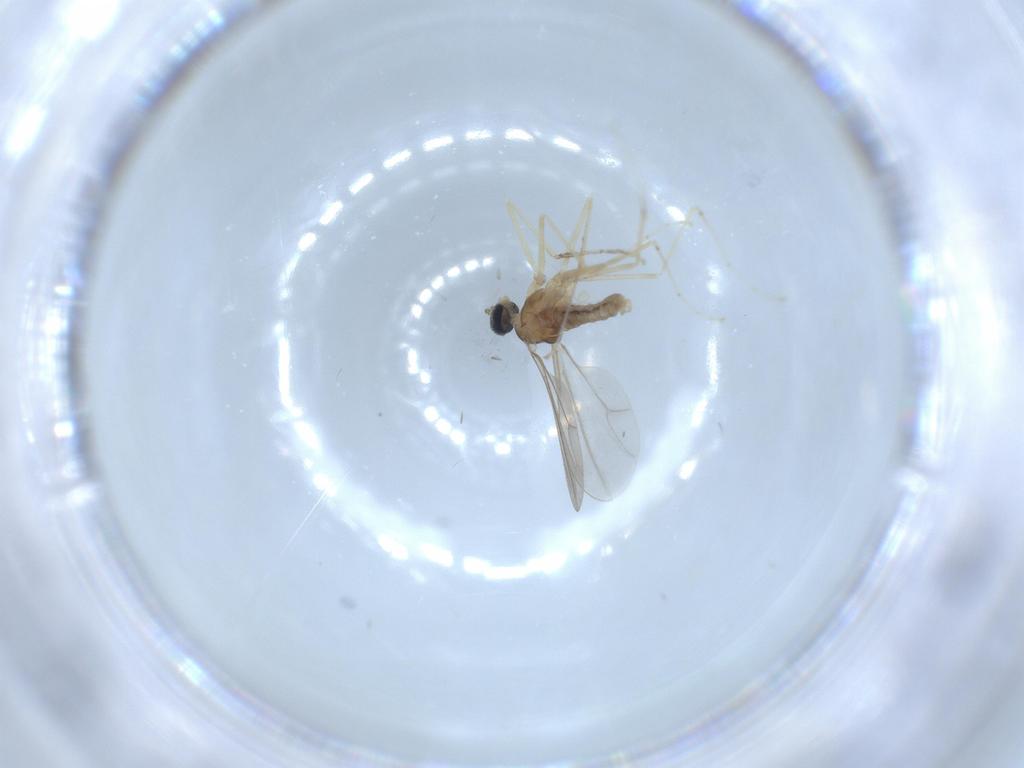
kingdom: Animalia
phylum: Arthropoda
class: Insecta
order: Diptera
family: Cecidomyiidae
